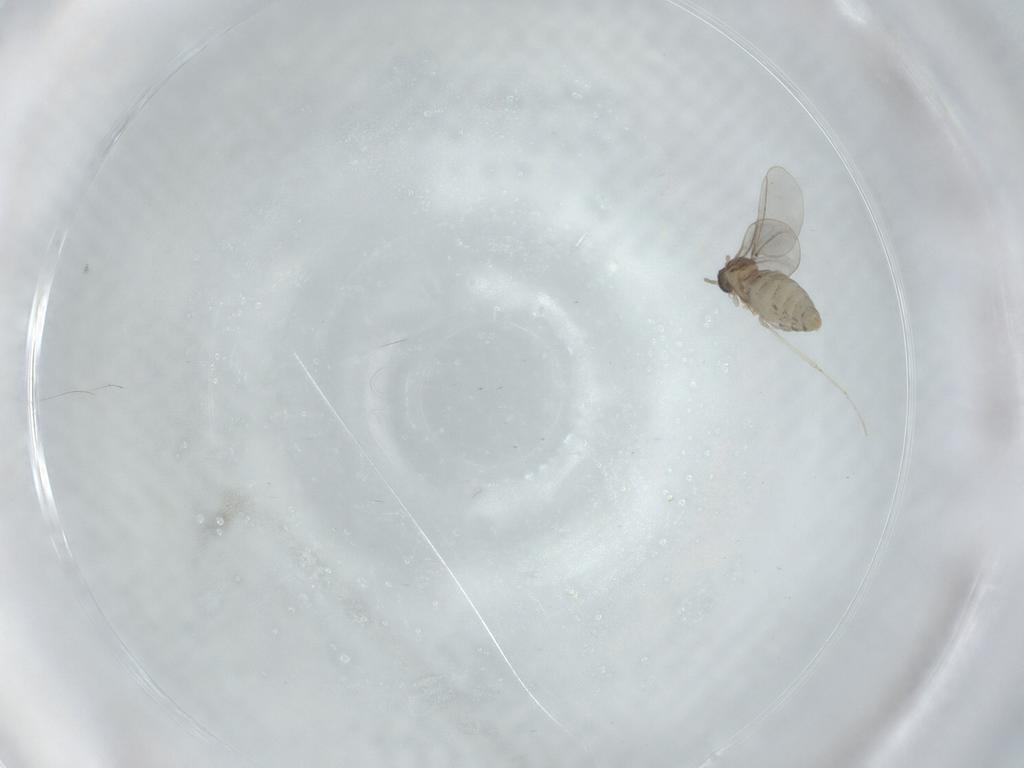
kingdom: Animalia
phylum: Arthropoda
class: Insecta
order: Diptera
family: Cecidomyiidae
